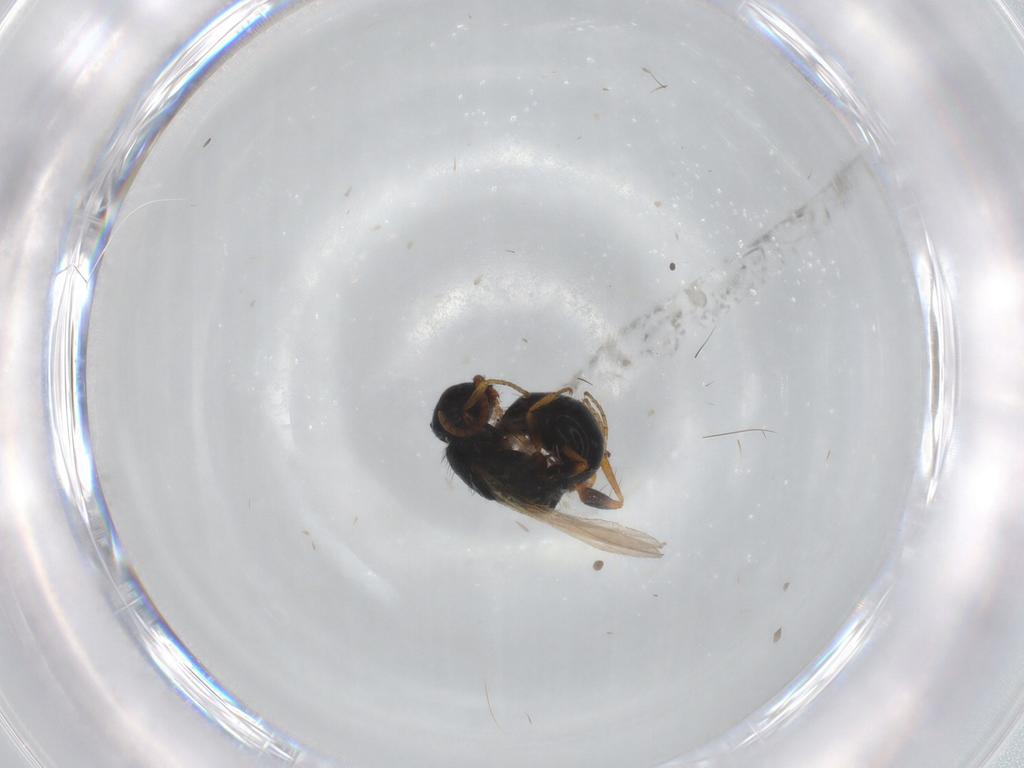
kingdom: Animalia
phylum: Arthropoda
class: Insecta
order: Hymenoptera
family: Bethylidae
